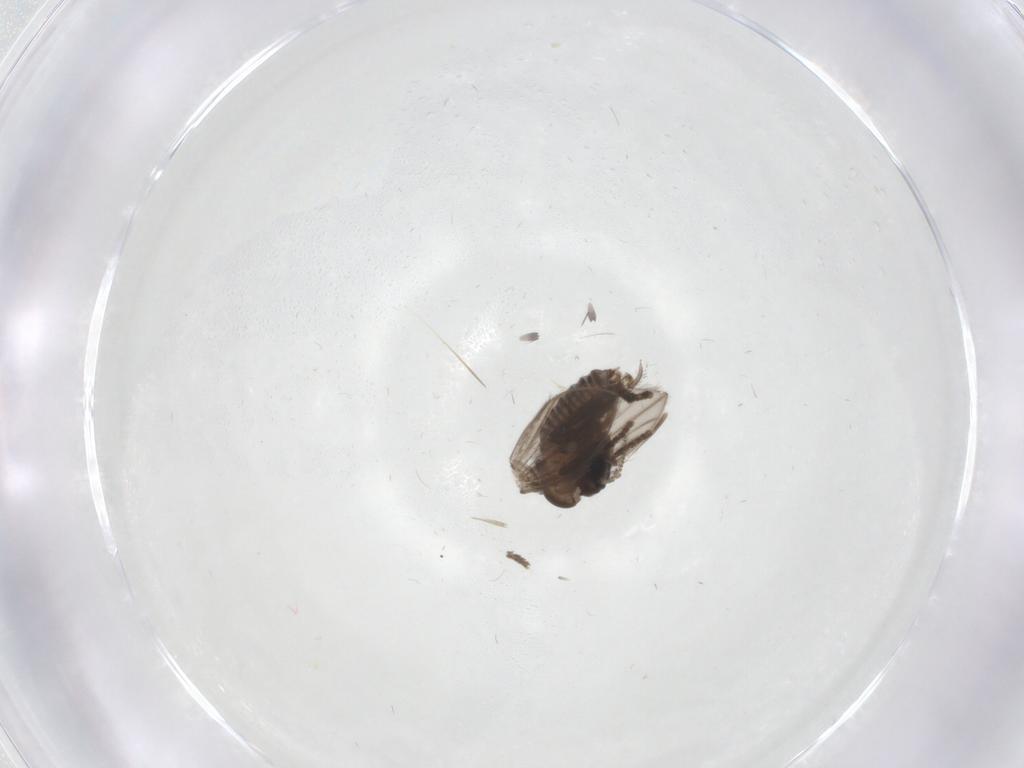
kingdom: Animalia
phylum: Arthropoda
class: Insecta
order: Diptera
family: Psychodidae
